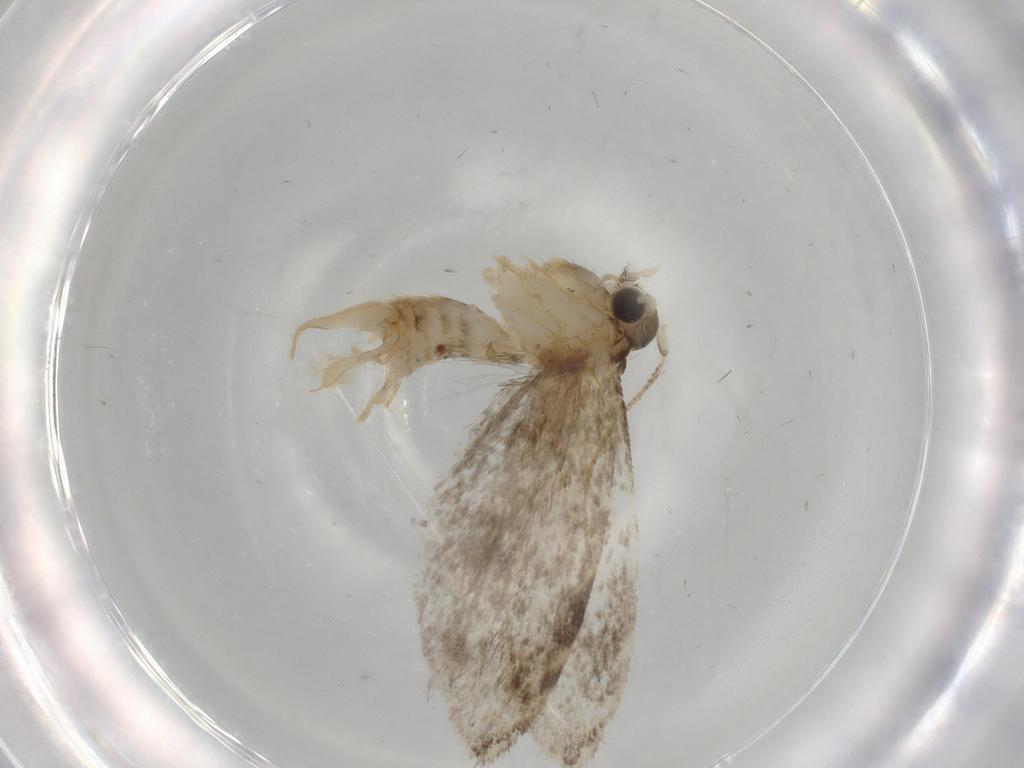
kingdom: Animalia
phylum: Arthropoda
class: Insecta
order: Lepidoptera
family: Tineidae
